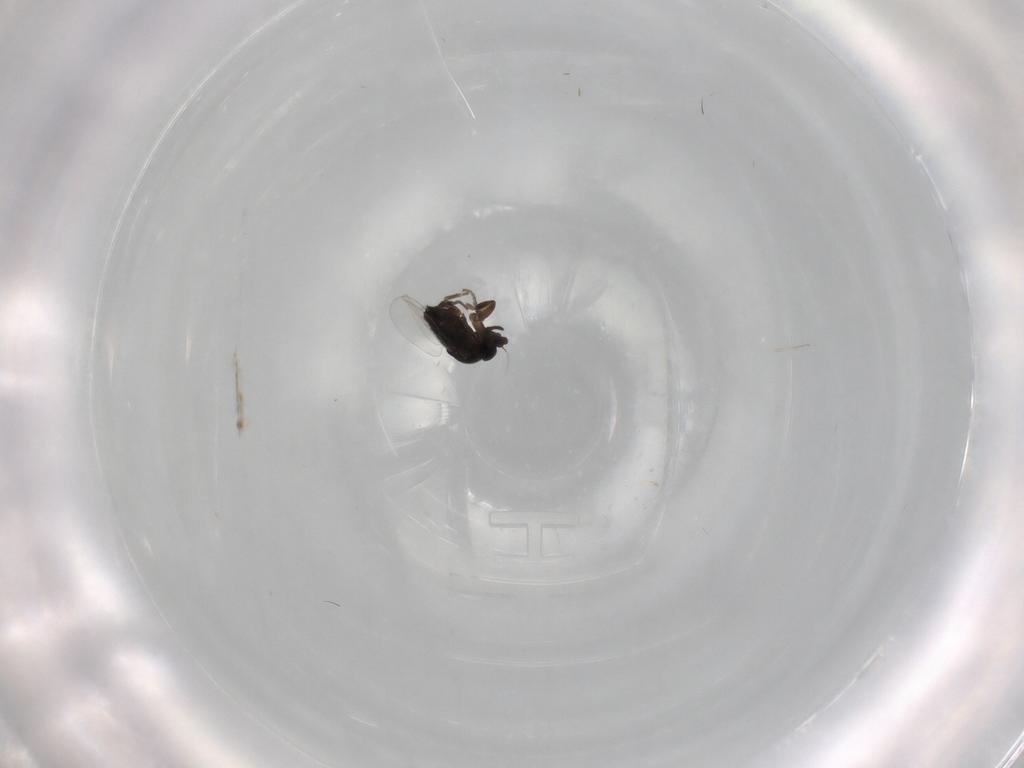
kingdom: Animalia
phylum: Arthropoda
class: Insecta
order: Diptera
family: Phoridae
